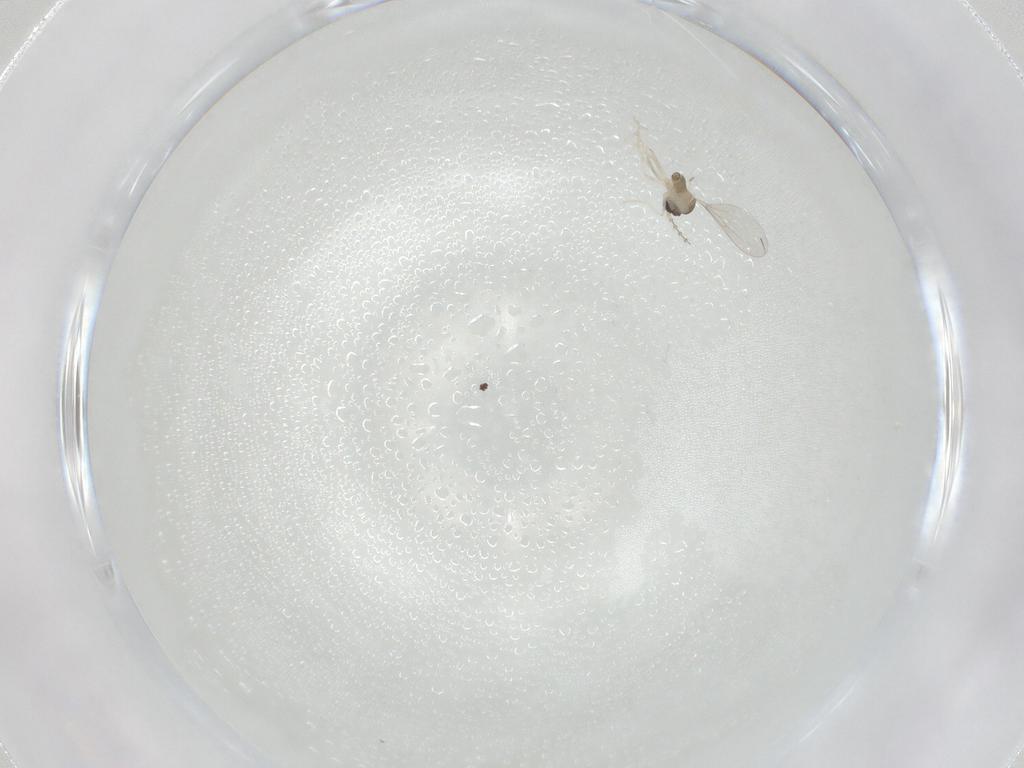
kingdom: Animalia
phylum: Arthropoda
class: Insecta
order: Diptera
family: Cecidomyiidae
